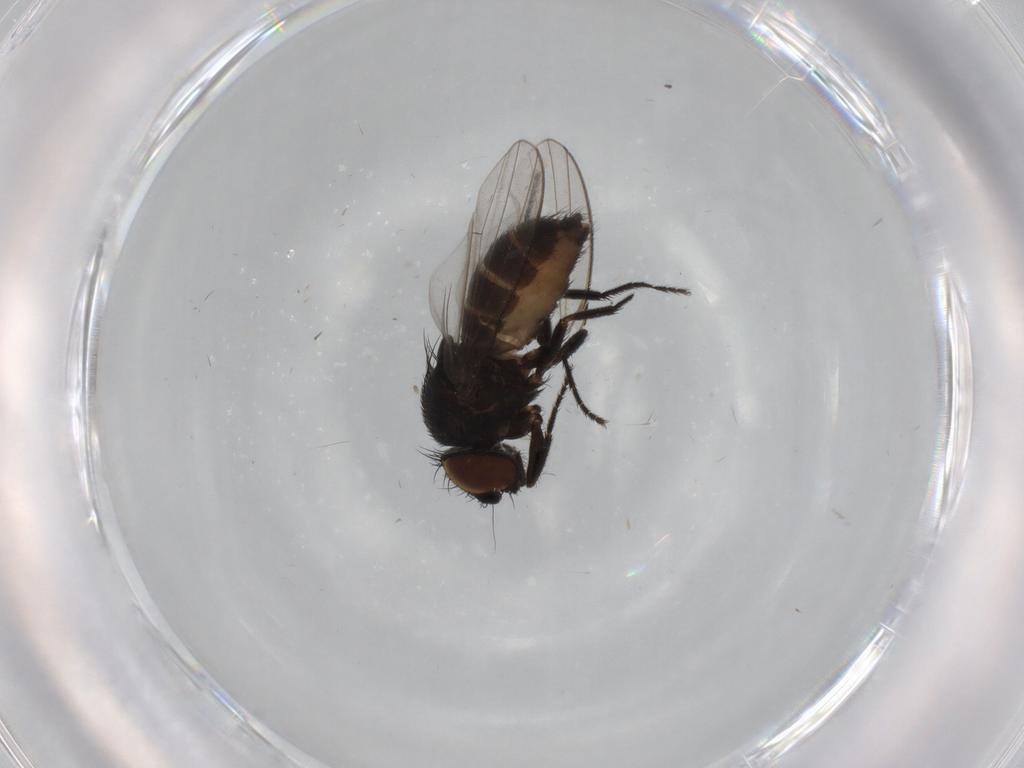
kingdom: Animalia
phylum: Arthropoda
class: Insecta
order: Diptera
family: Milichiidae
